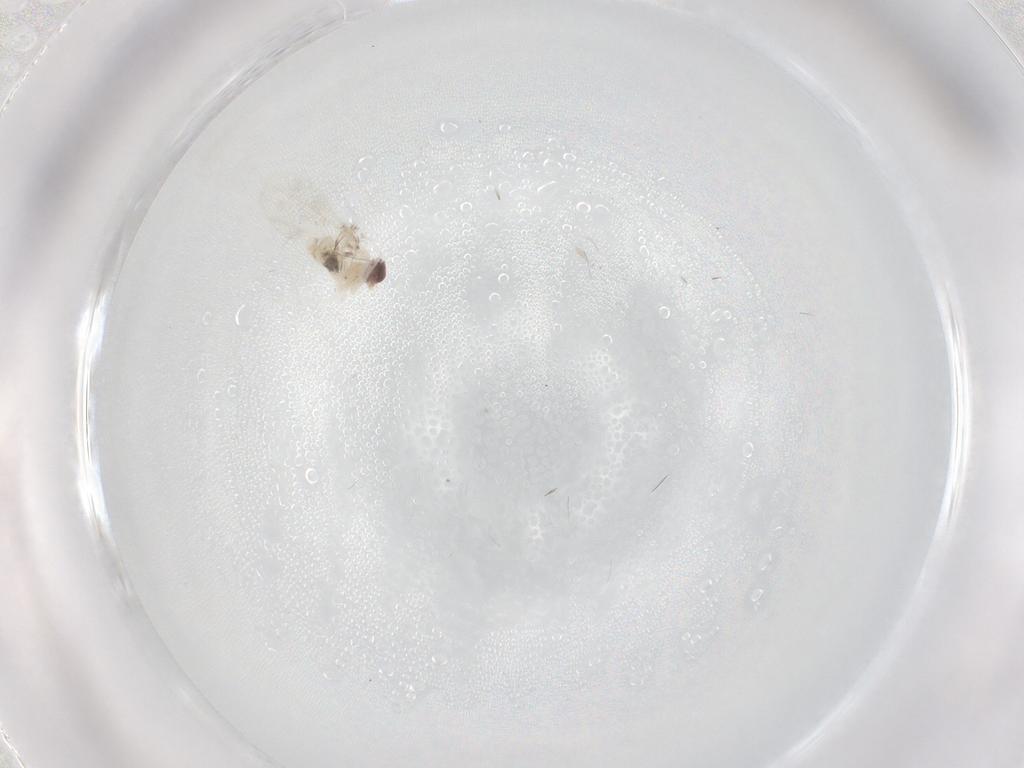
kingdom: Animalia
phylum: Arthropoda
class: Insecta
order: Diptera
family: Cecidomyiidae
